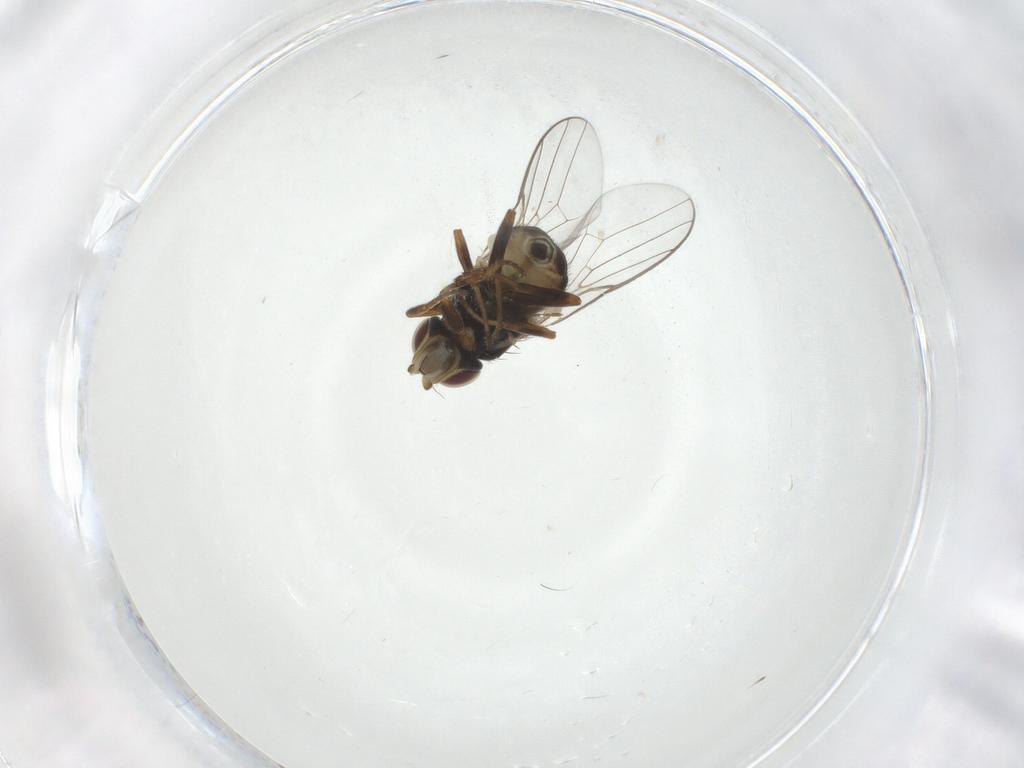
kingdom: Animalia
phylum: Arthropoda
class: Insecta
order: Diptera
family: Chloropidae
